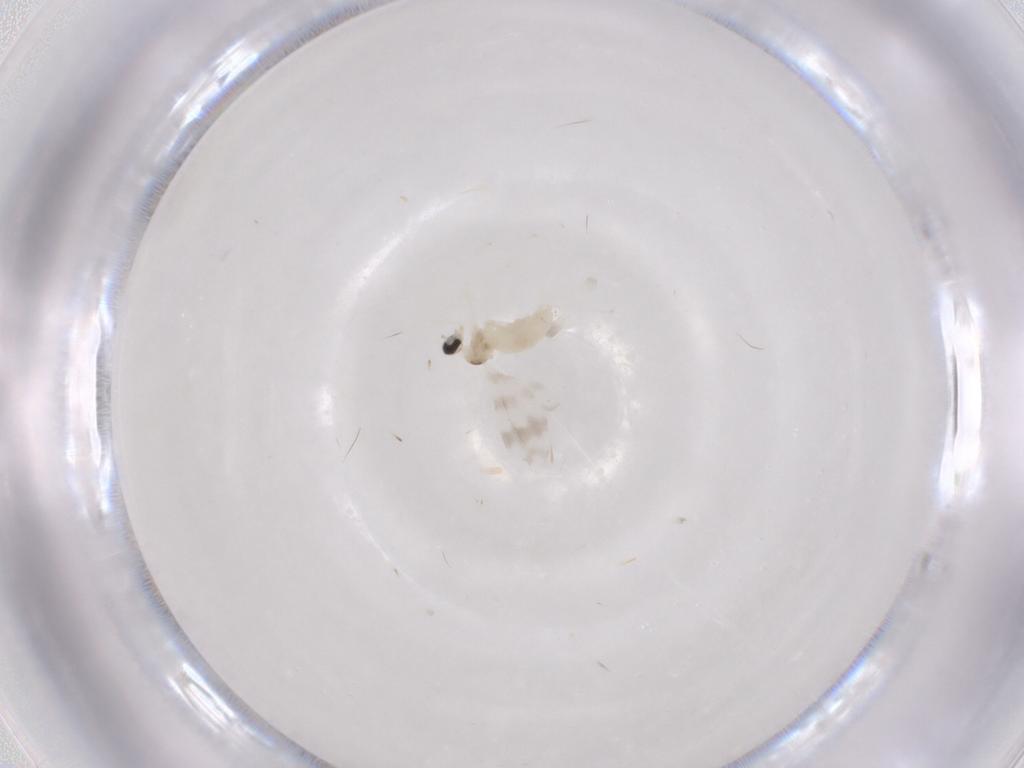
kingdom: Animalia
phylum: Arthropoda
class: Insecta
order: Diptera
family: Cecidomyiidae
